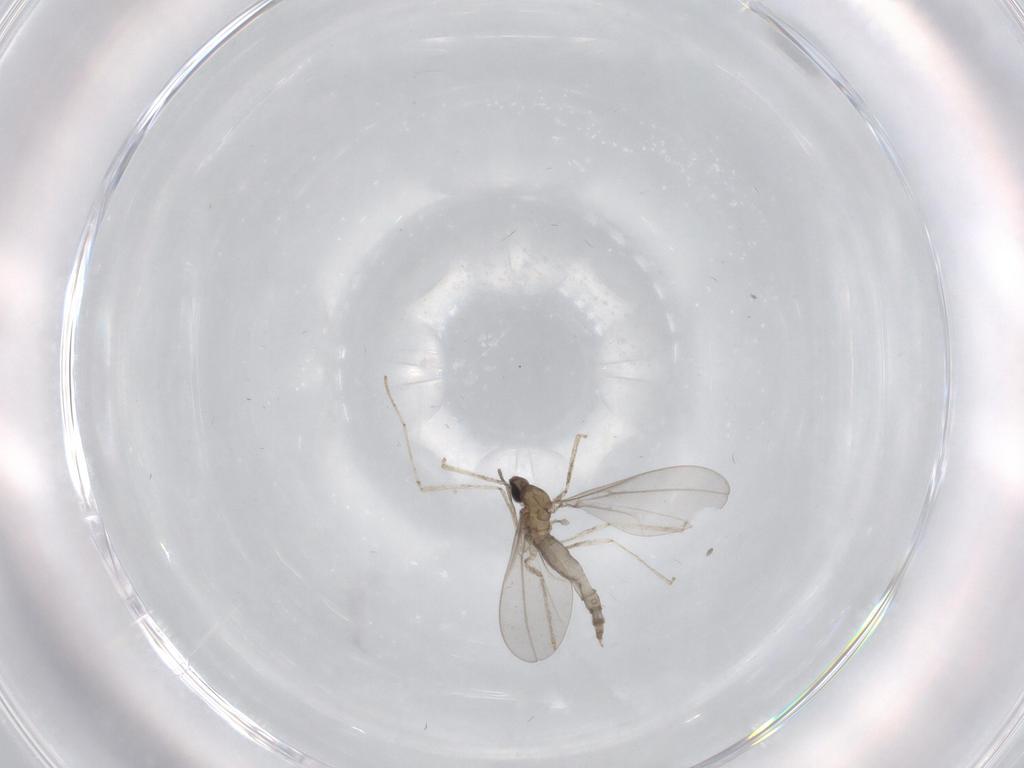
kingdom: Animalia
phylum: Arthropoda
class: Insecta
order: Diptera
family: Cecidomyiidae
